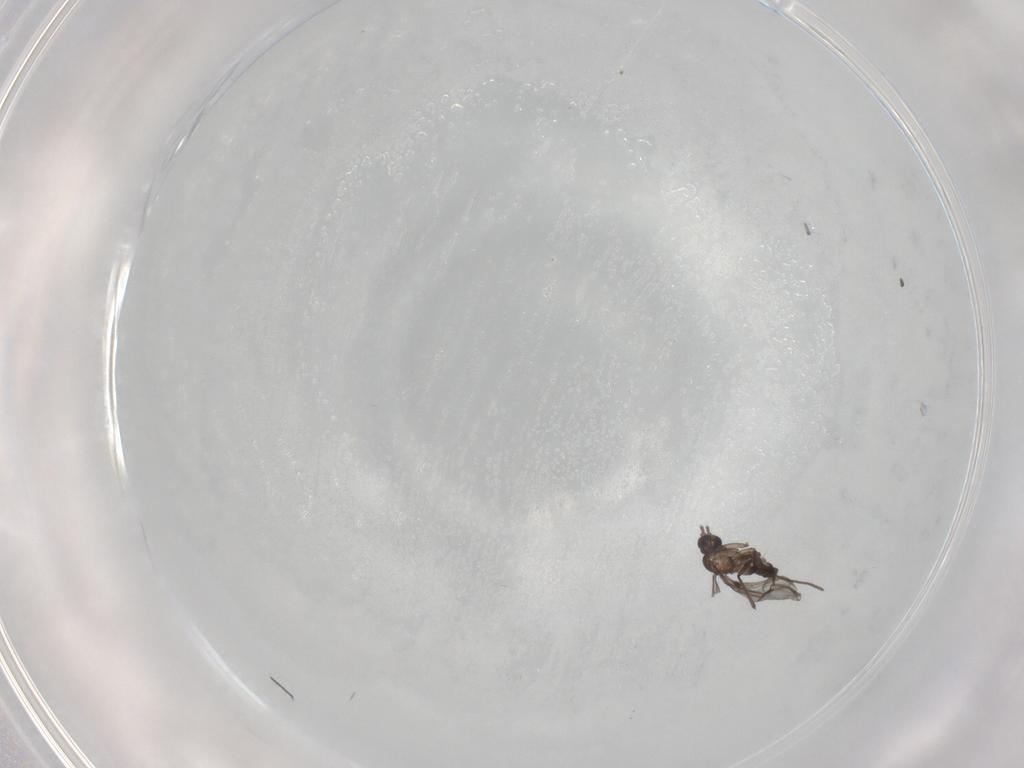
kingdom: Animalia
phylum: Arthropoda
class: Insecta
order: Diptera
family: Sciaridae
